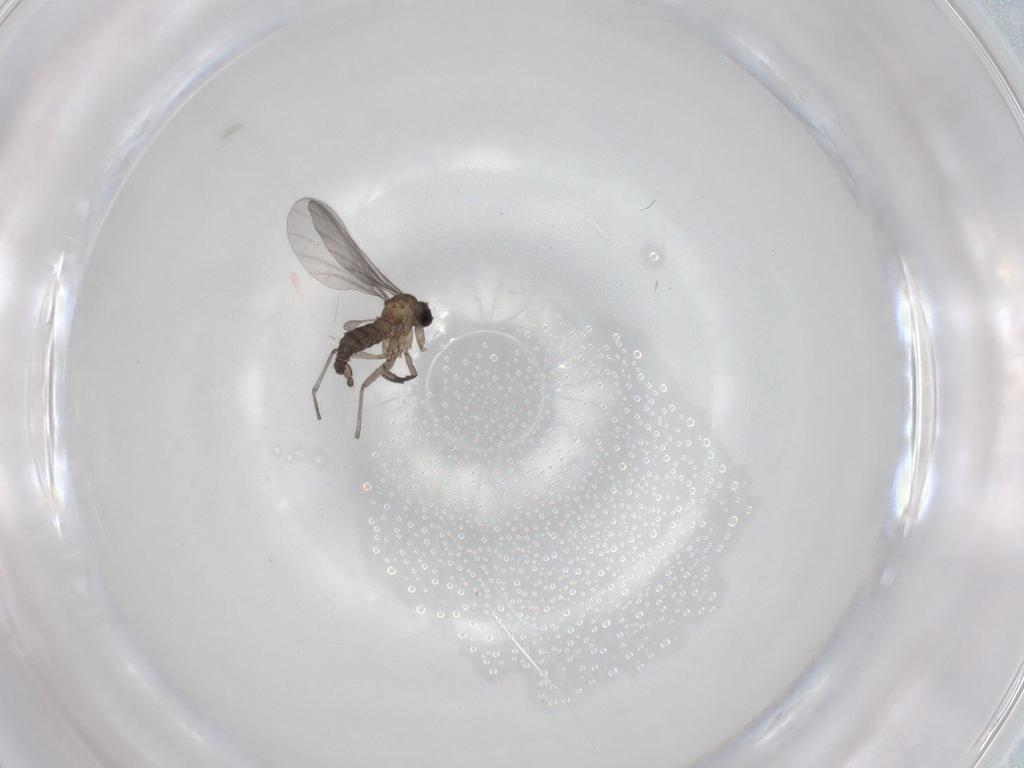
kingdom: Animalia
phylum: Arthropoda
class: Insecta
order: Diptera
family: Sciaridae
